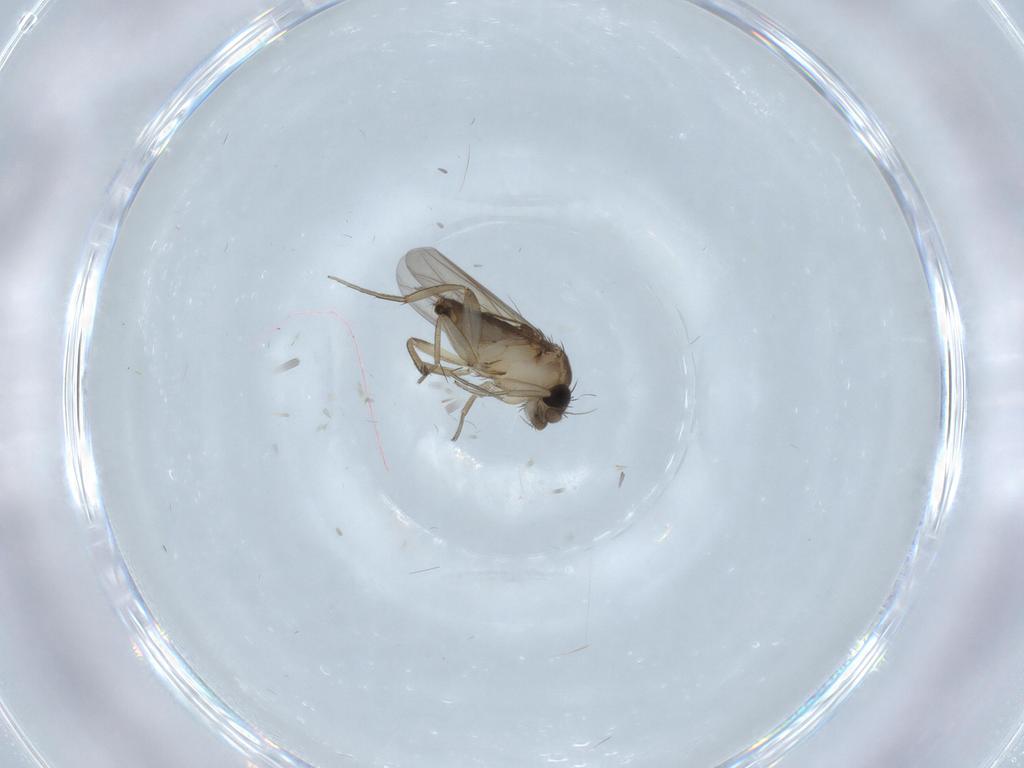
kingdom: Animalia
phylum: Arthropoda
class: Insecta
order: Diptera
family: Phoridae
